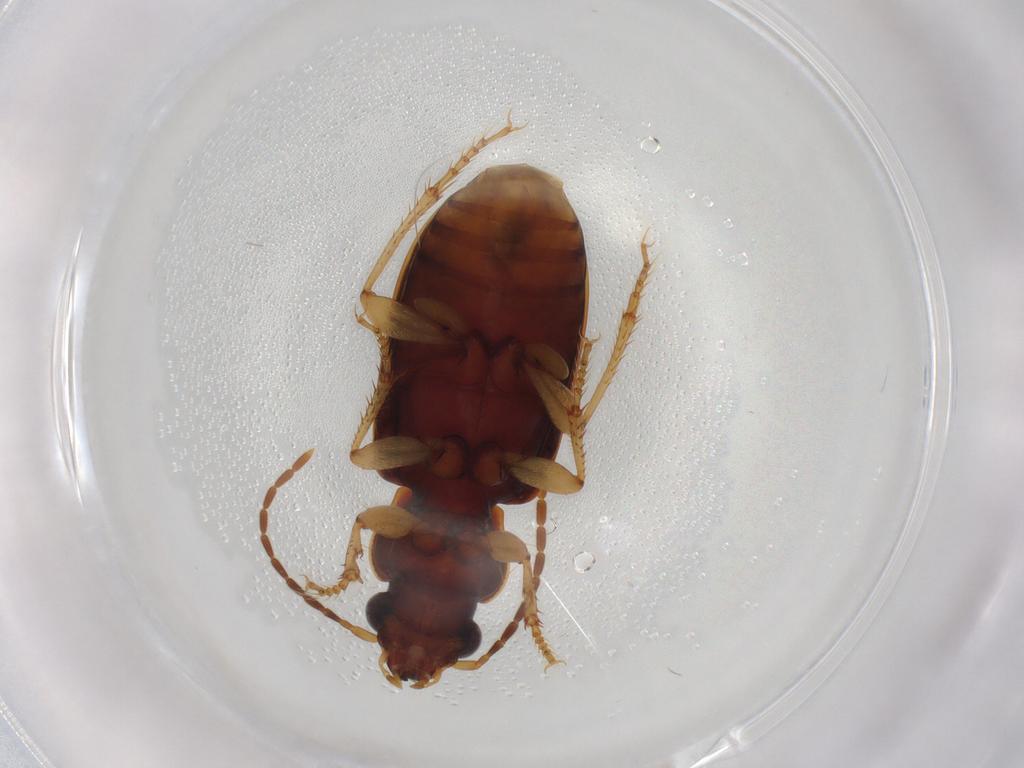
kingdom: Animalia
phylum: Arthropoda
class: Insecta
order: Coleoptera
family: Carabidae
